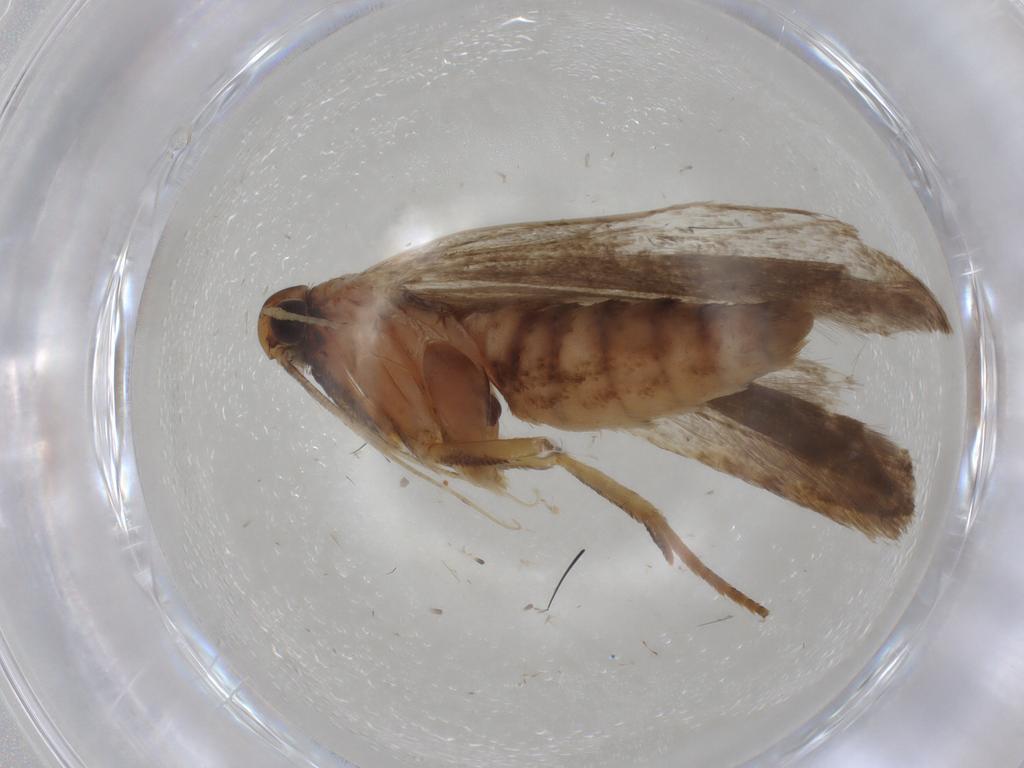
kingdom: Animalia
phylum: Arthropoda
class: Insecta
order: Lepidoptera
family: Gelechiidae
